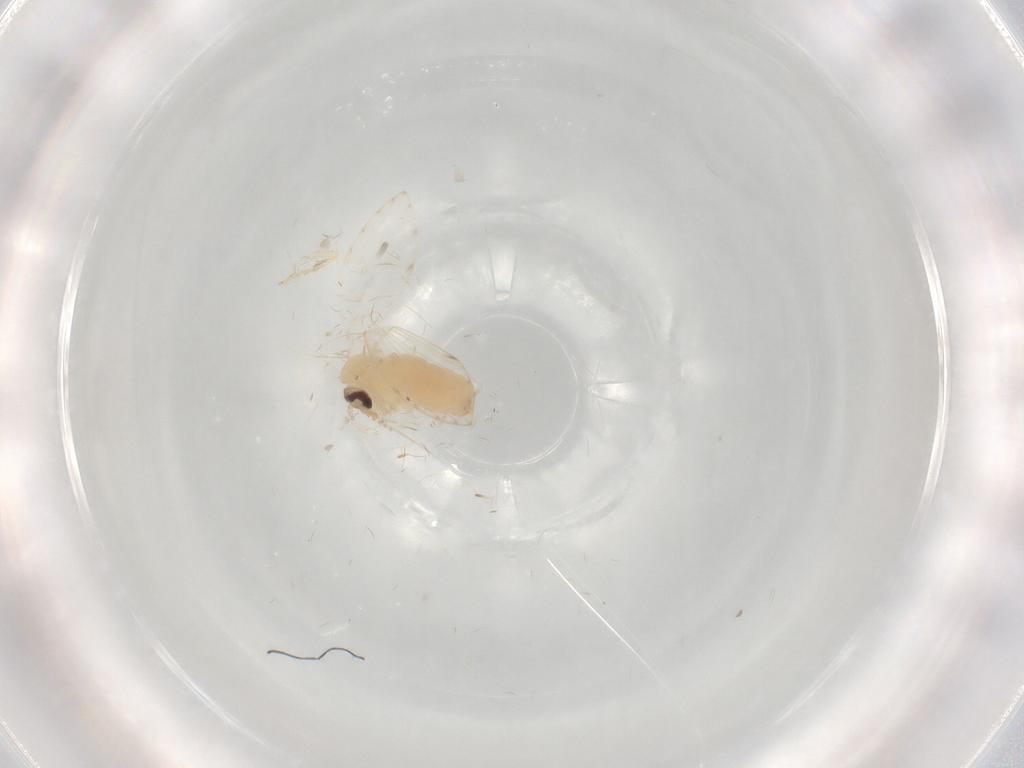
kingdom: Animalia
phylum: Arthropoda
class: Insecta
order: Diptera
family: Psychodidae
